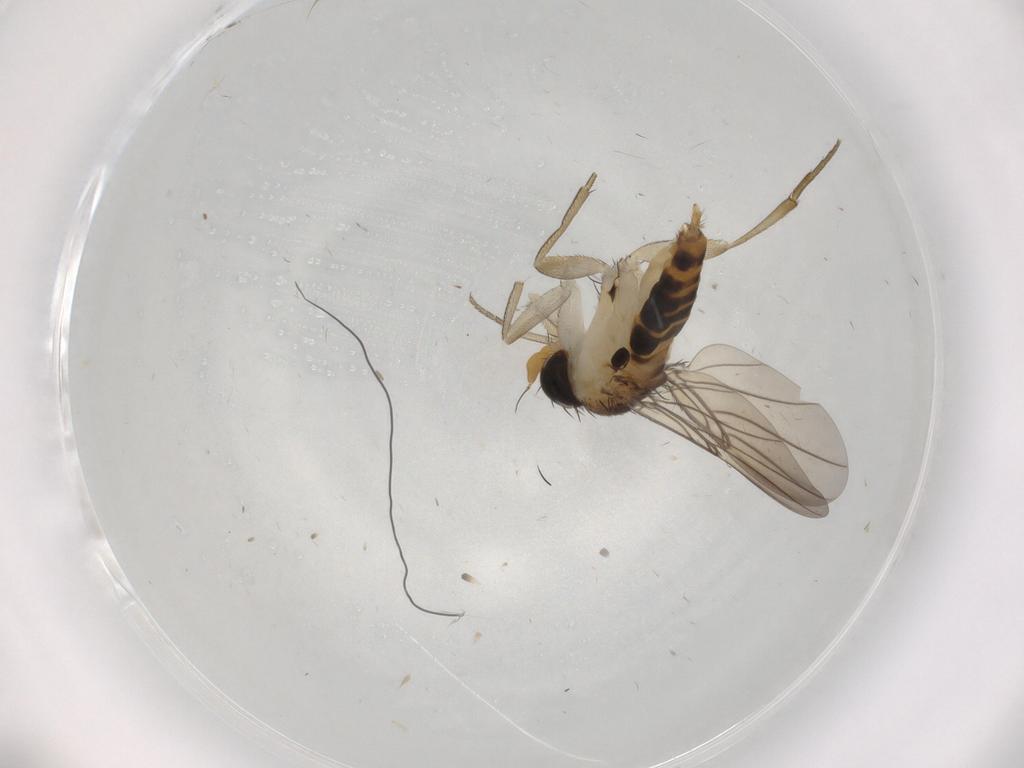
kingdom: Animalia
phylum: Arthropoda
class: Insecta
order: Diptera
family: Phoridae
